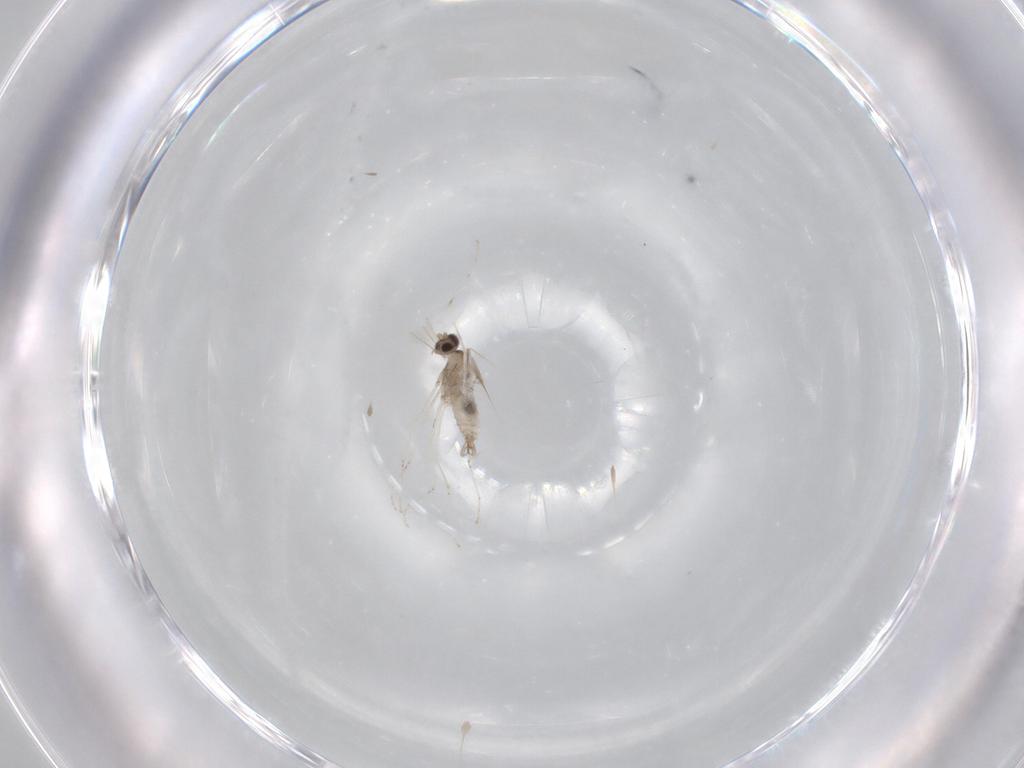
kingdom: Animalia
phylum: Arthropoda
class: Insecta
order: Diptera
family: Cecidomyiidae
